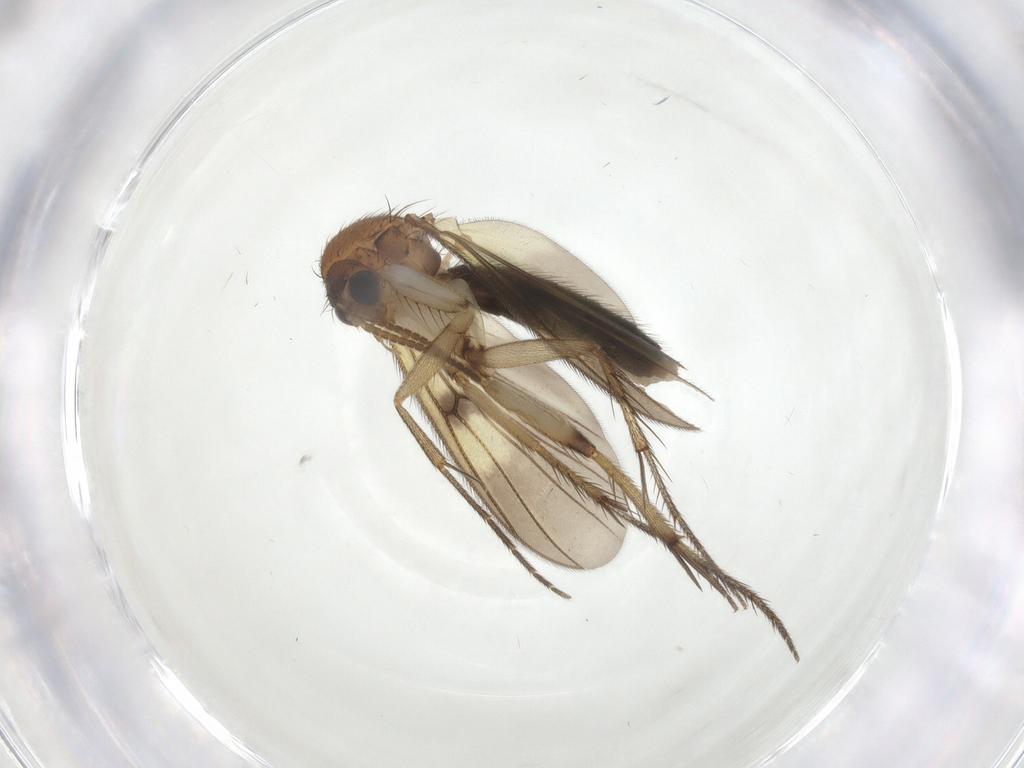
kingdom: Animalia
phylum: Arthropoda
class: Insecta
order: Diptera
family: Mycetophilidae
